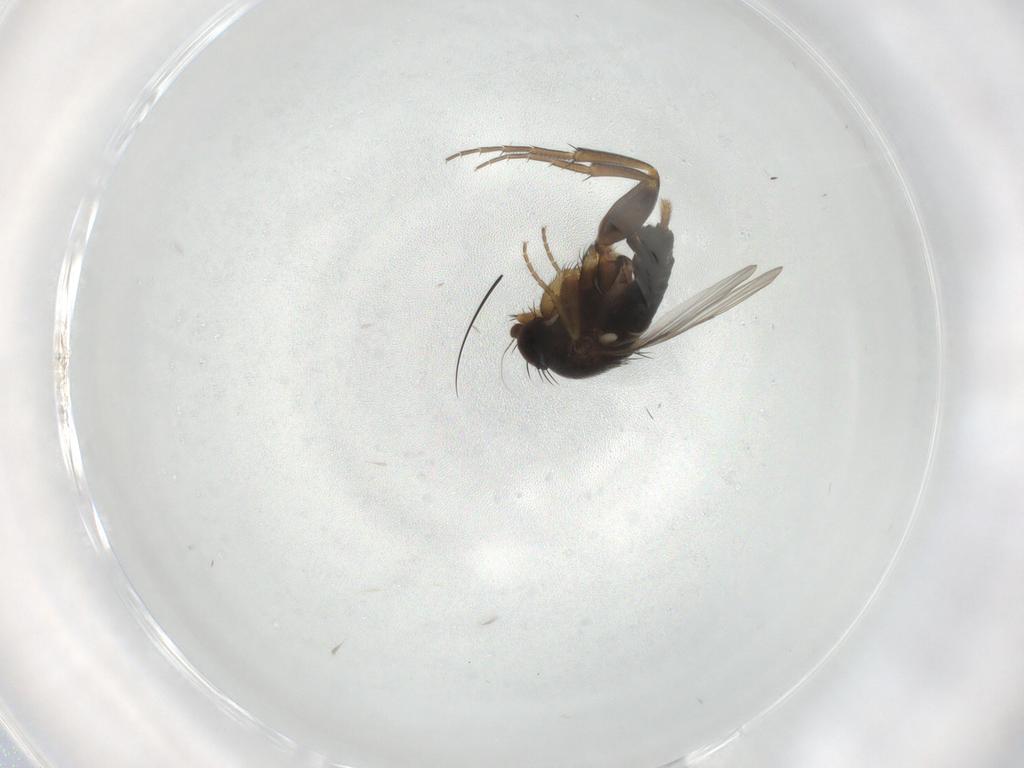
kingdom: Animalia
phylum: Arthropoda
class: Insecta
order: Diptera
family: Phoridae
